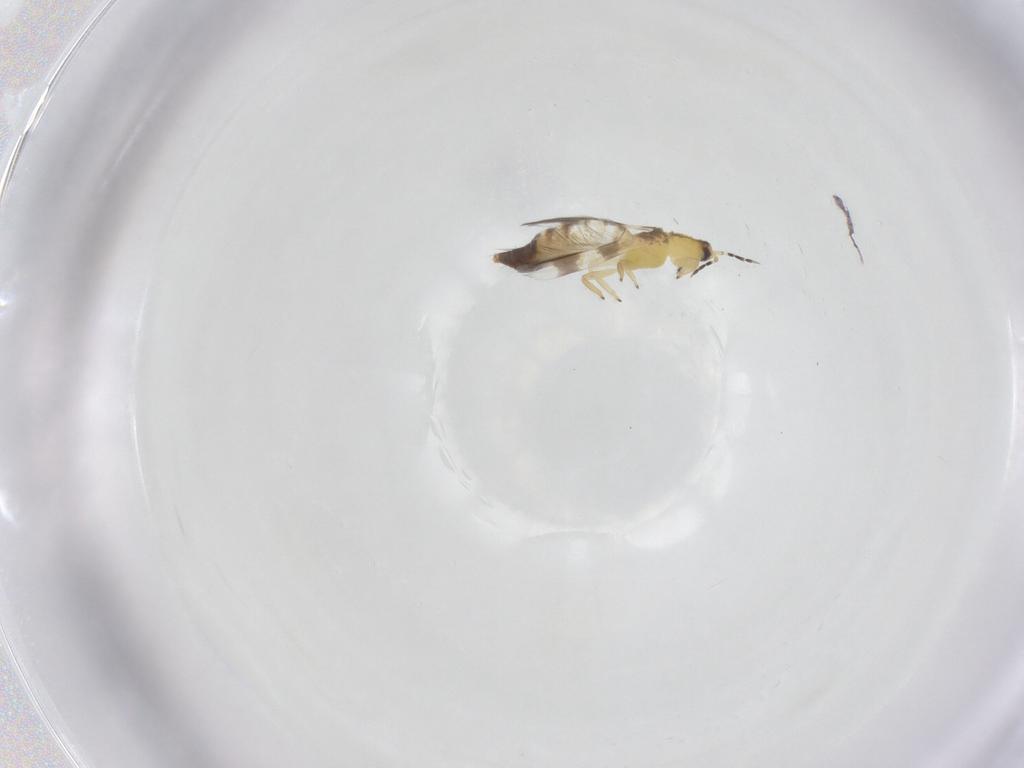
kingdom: Animalia
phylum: Arthropoda
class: Insecta
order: Thysanoptera
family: Aeolothripidae
